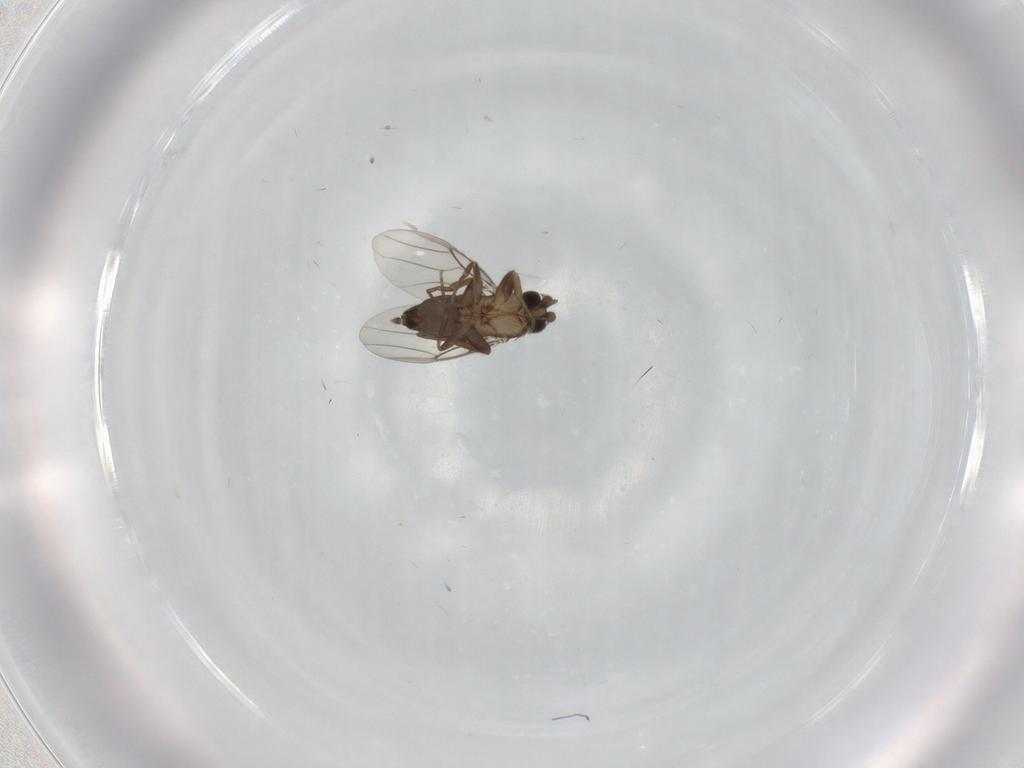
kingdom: Animalia
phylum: Arthropoda
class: Insecta
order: Diptera
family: Phoridae
